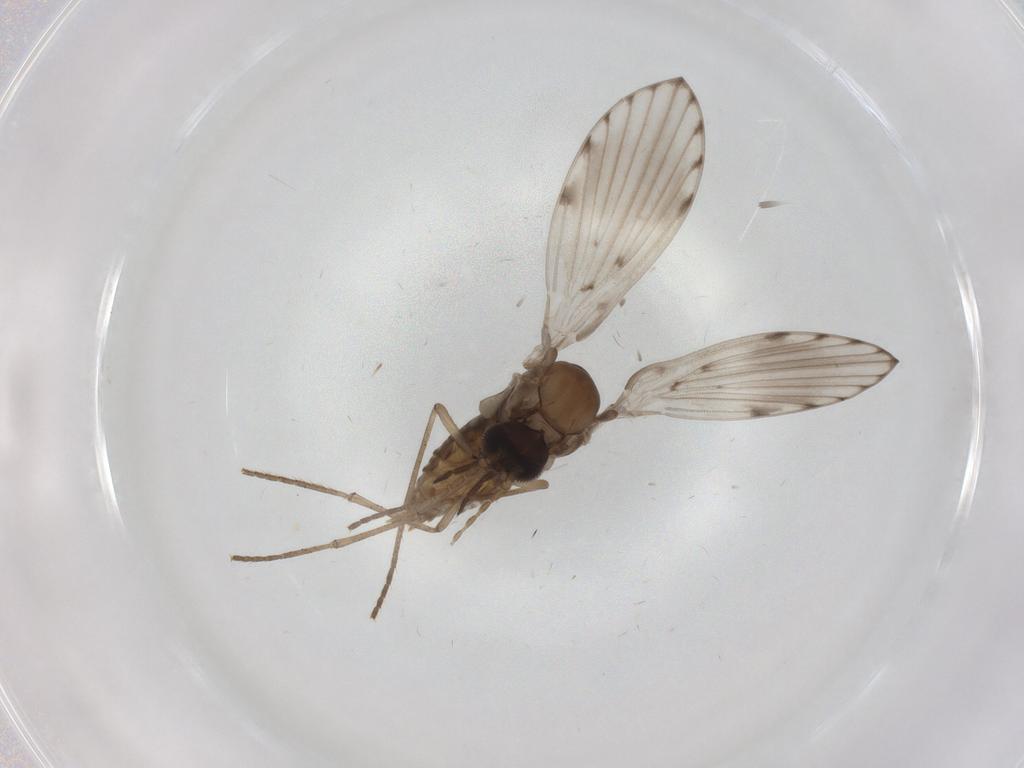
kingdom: Animalia
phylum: Arthropoda
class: Insecta
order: Diptera
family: Psychodidae
